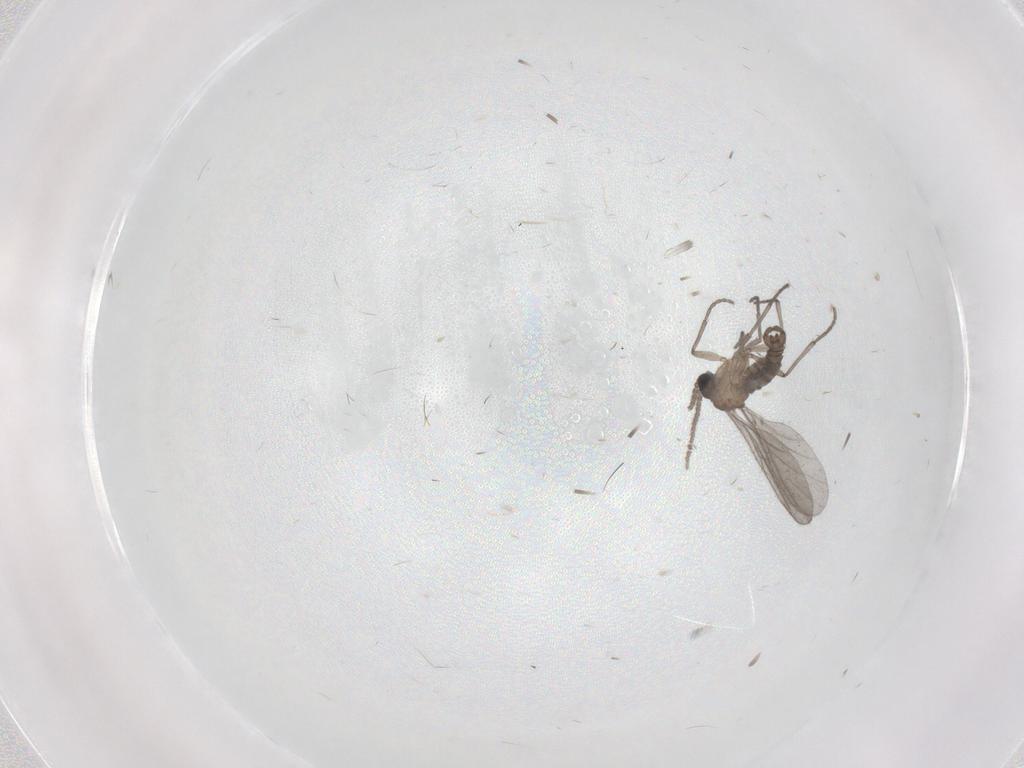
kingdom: Animalia
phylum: Arthropoda
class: Insecta
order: Diptera
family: Sciaridae
